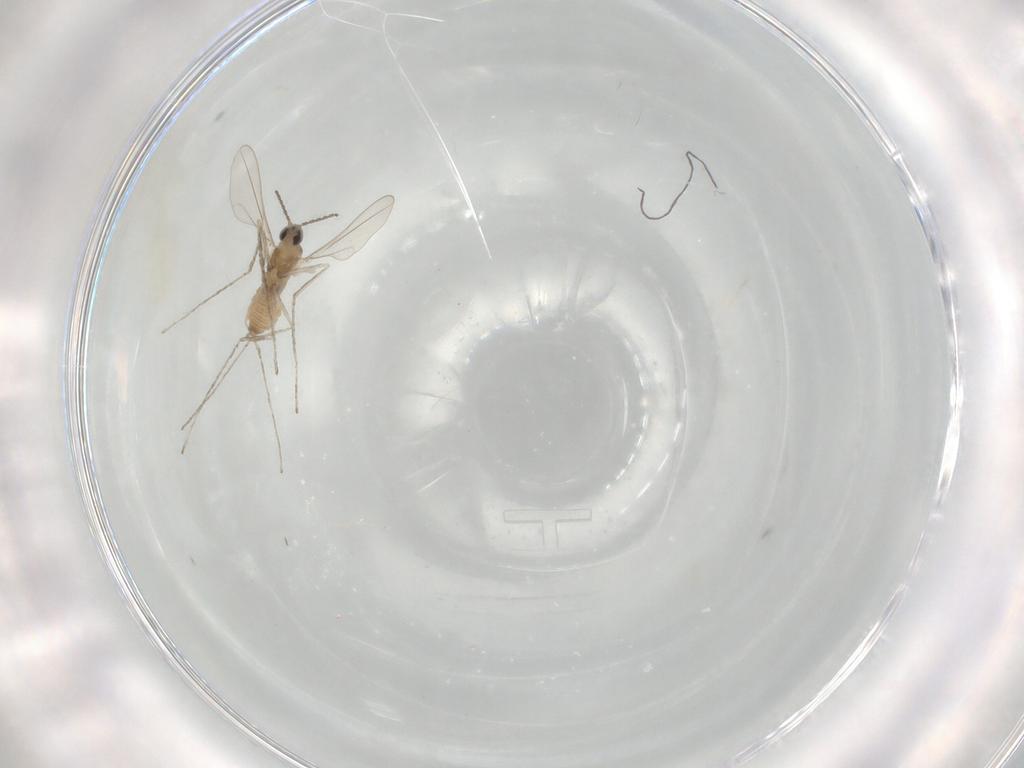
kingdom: Animalia
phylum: Arthropoda
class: Insecta
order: Diptera
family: Cecidomyiidae
